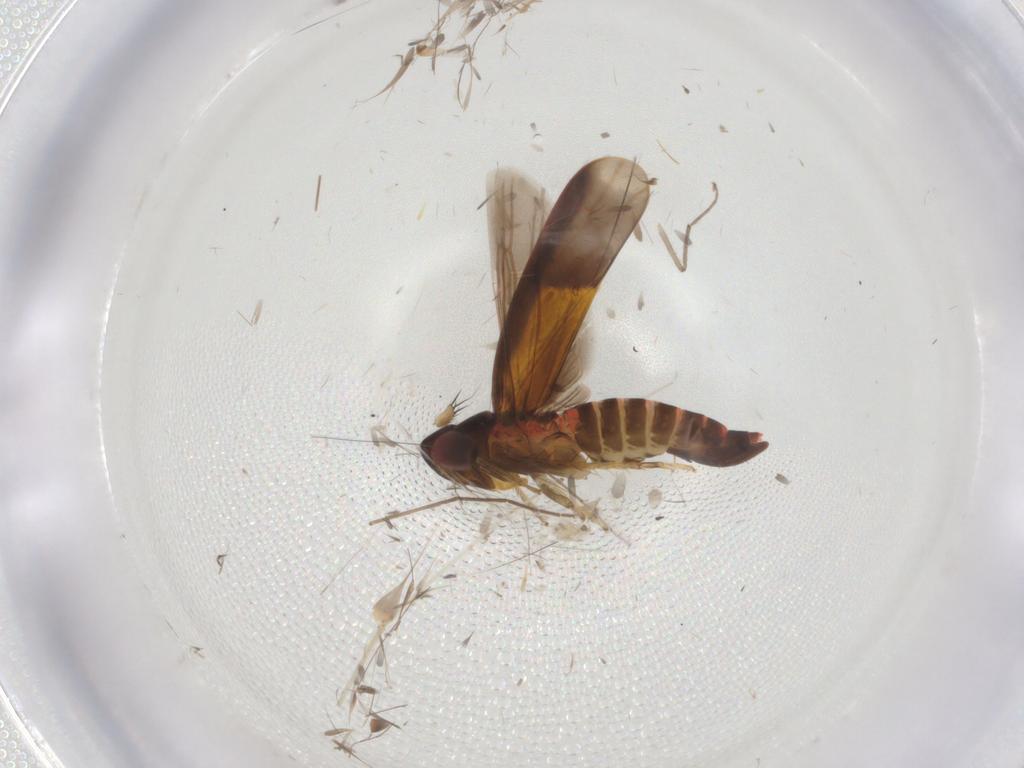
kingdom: Animalia
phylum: Arthropoda
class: Insecta
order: Hemiptera
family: Cicadellidae
